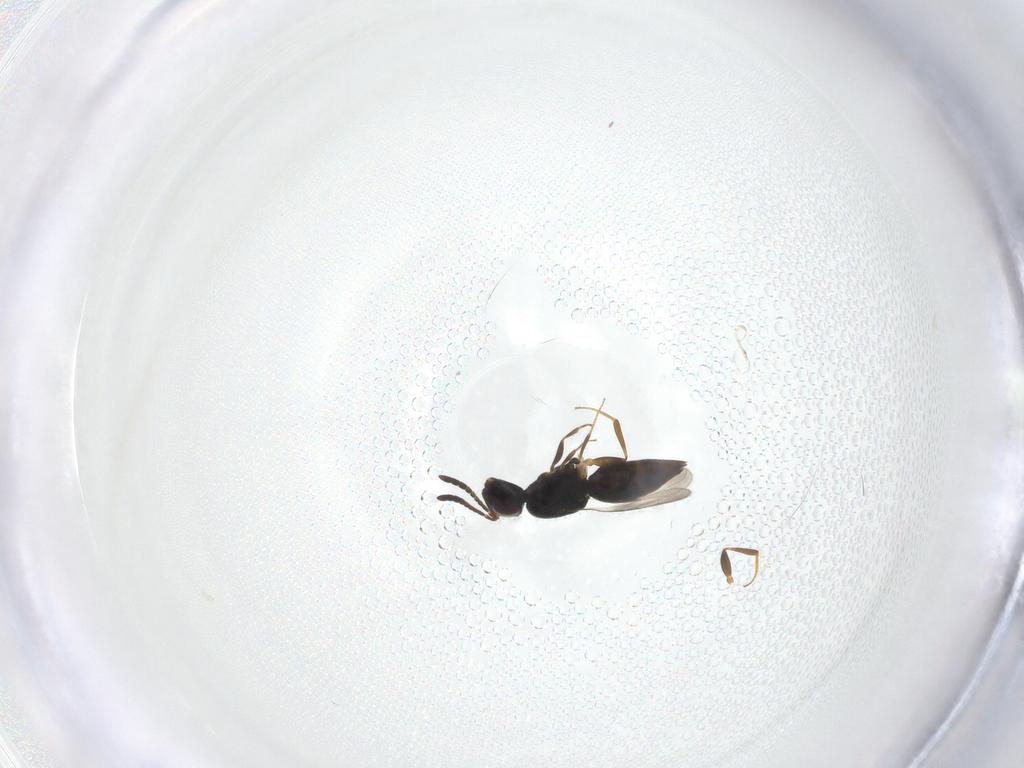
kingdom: Animalia
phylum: Arthropoda
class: Insecta
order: Hymenoptera
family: Ceraphronidae
